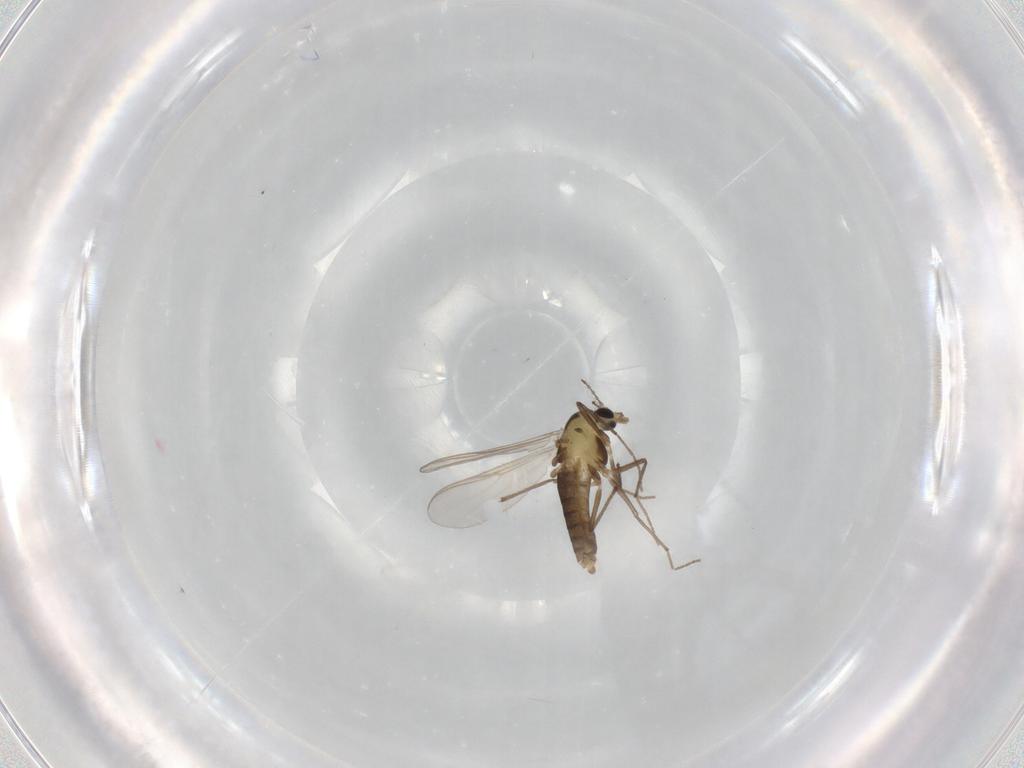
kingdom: Animalia
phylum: Arthropoda
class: Insecta
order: Diptera
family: Chironomidae
